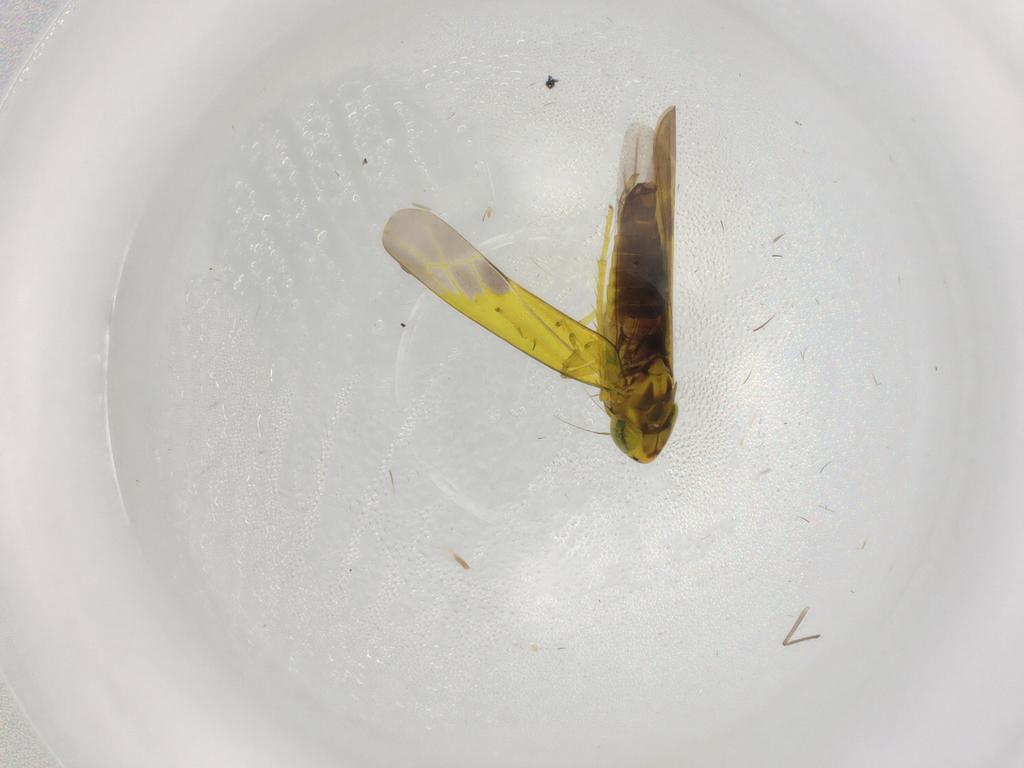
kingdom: Animalia
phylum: Arthropoda
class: Insecta
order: Hemiptera
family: Cicadellidae
